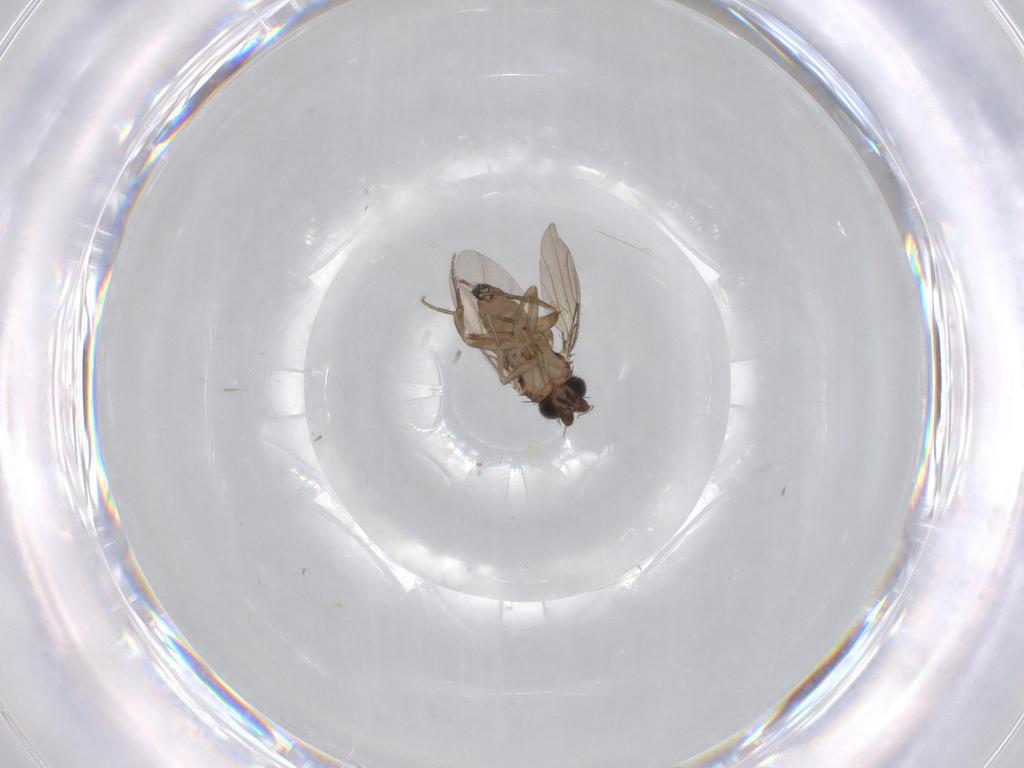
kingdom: Animalia
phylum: Arthropoda
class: Insecta
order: Diptera
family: Phoridae
